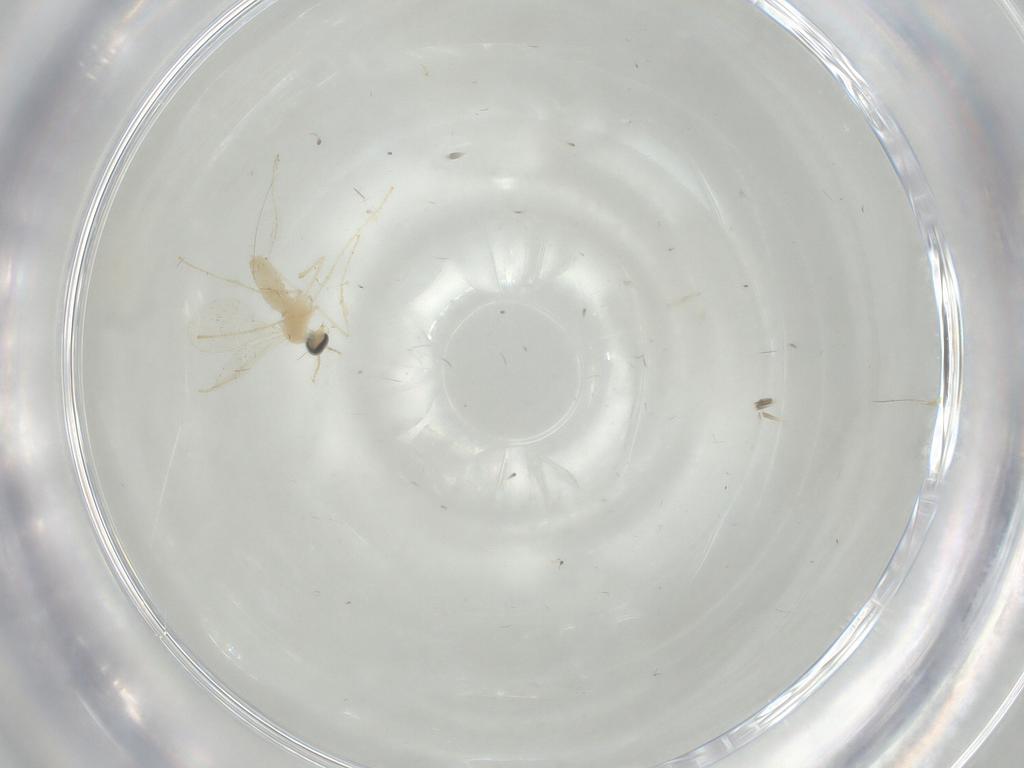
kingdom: Animalia
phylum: Arthropoda
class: Insecta
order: Diptera
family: Cecidomyiidae
